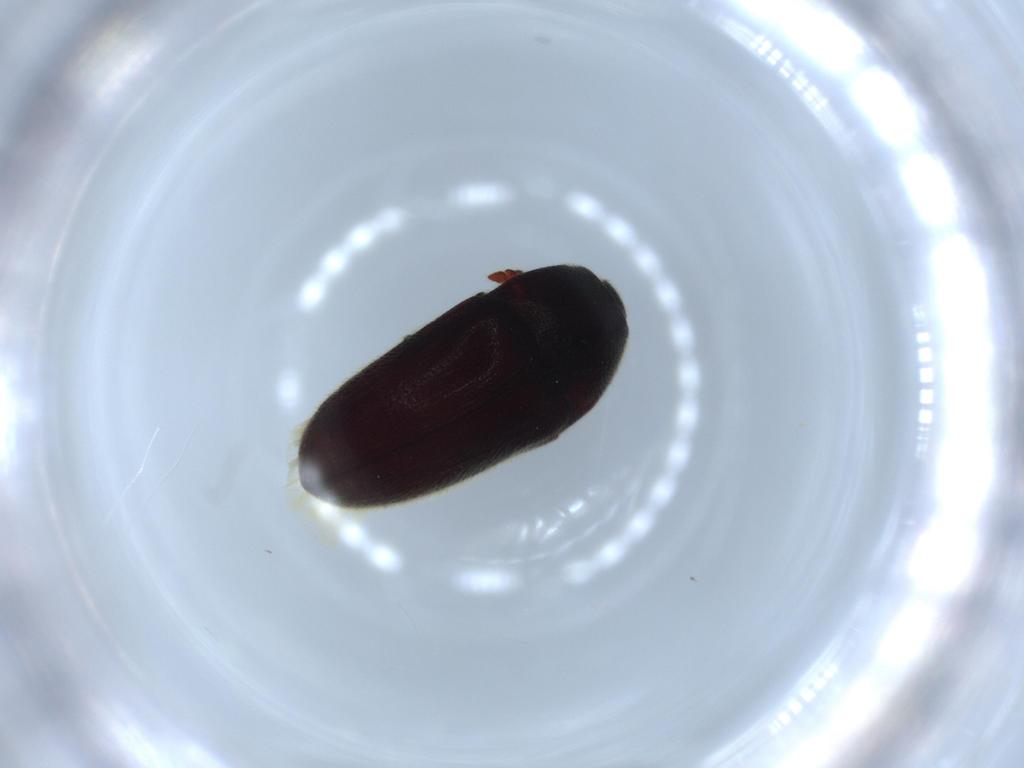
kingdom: Animalia
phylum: Arthropoda
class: Insecta
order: Coleoptera
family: Throscidae
